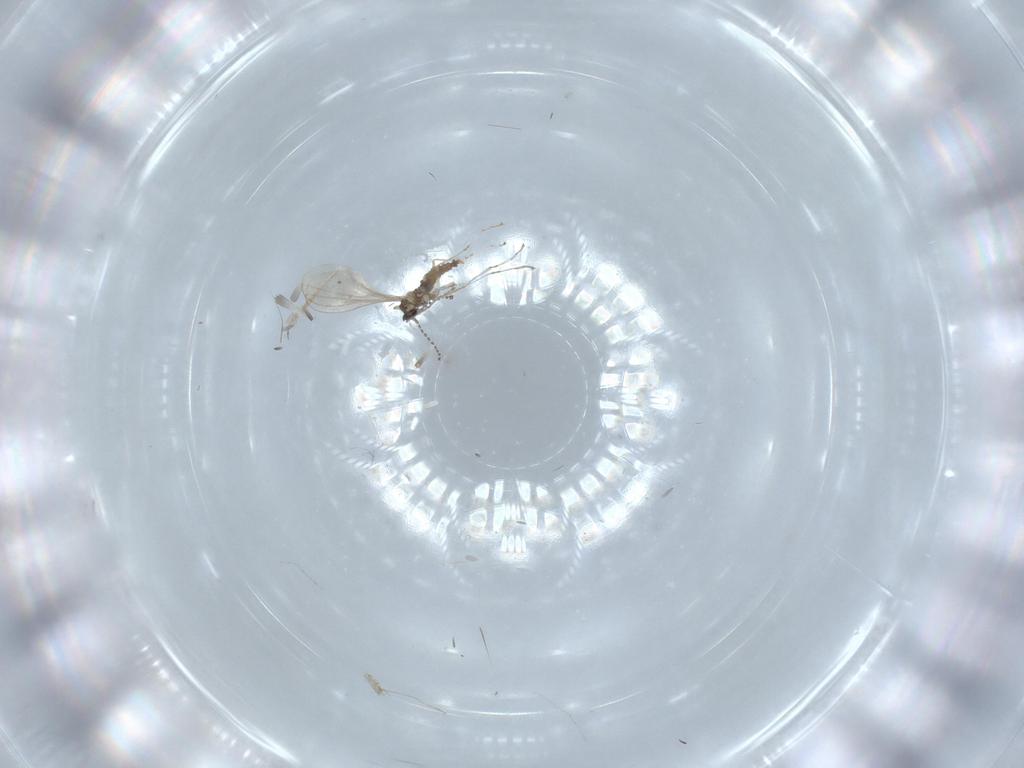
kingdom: Animalia
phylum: Arthropoda
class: Insecta
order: Diptera
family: Cecidomyiidae
